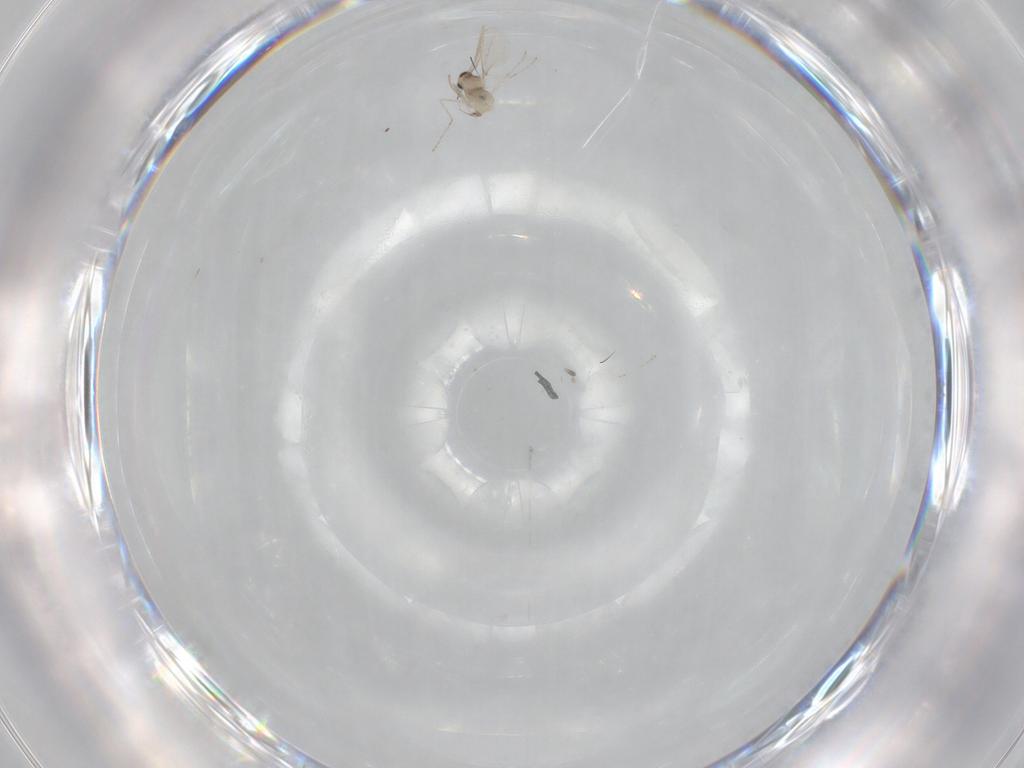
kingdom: Animalia
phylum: Arthropoda
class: Insecta
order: Diptera
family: Cecidomyiidae
